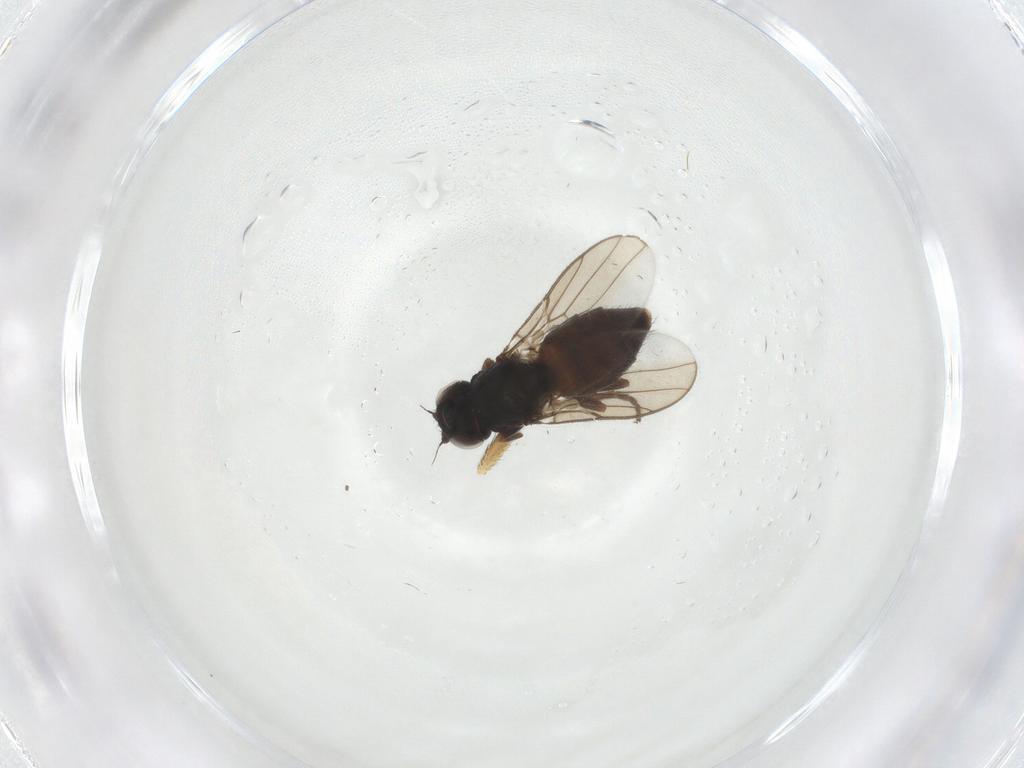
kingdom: Animalia
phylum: Arthropoda
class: Insecta
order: Diptera
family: Chloropidae
